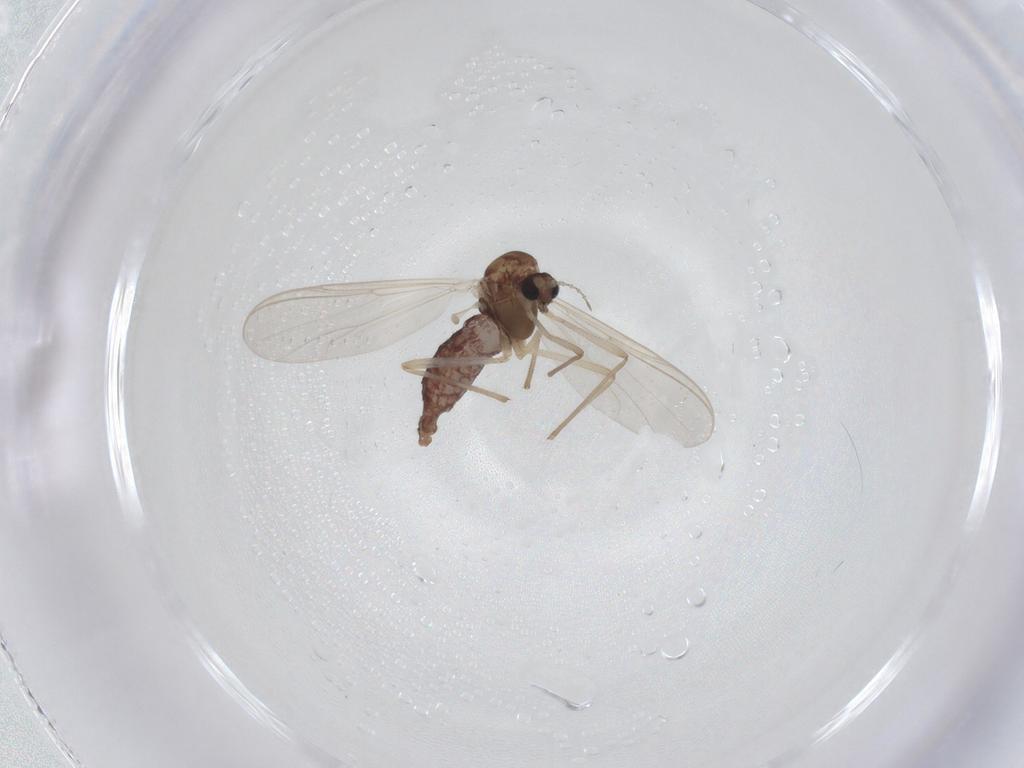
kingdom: Animalia
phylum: Arthropoda
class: Insecta
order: Diptera
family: Chironomidae
